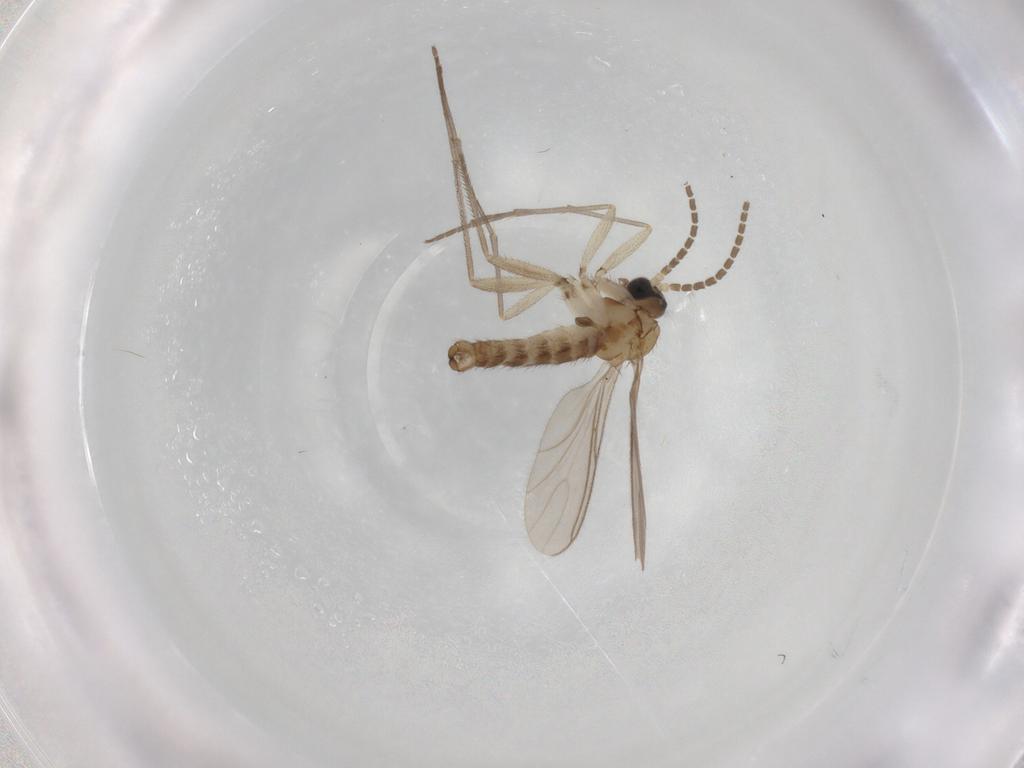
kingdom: Animalia
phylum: Arthropoda
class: Insecta
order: Diptera
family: Sciaridae
